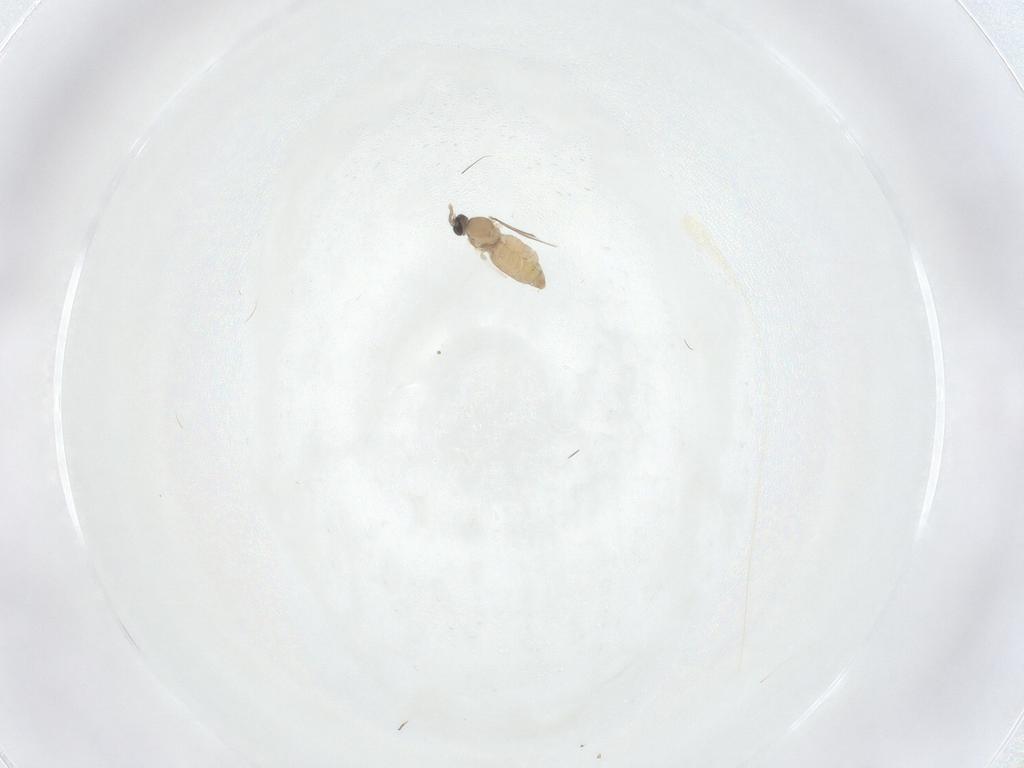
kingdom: Animalia
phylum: Arthropoda
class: Insecta
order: Diptera
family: Cecidomyiidae
